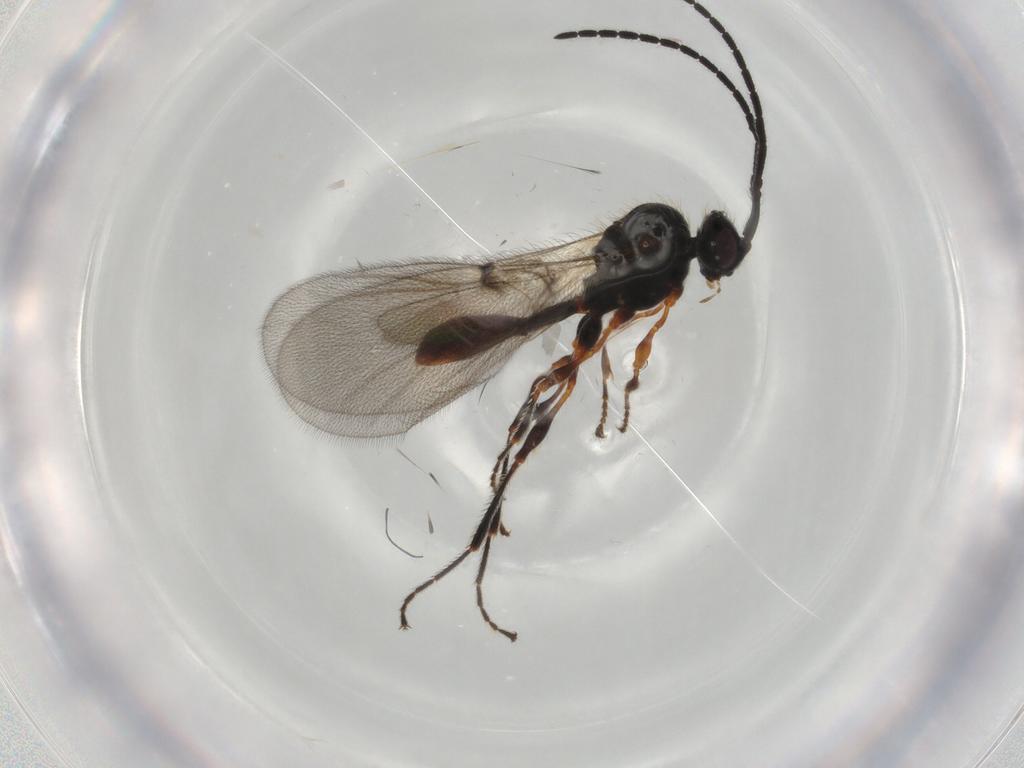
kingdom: Animalia
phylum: Arthropoda
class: Insecta
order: Hymenoptera
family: Diapriidae
